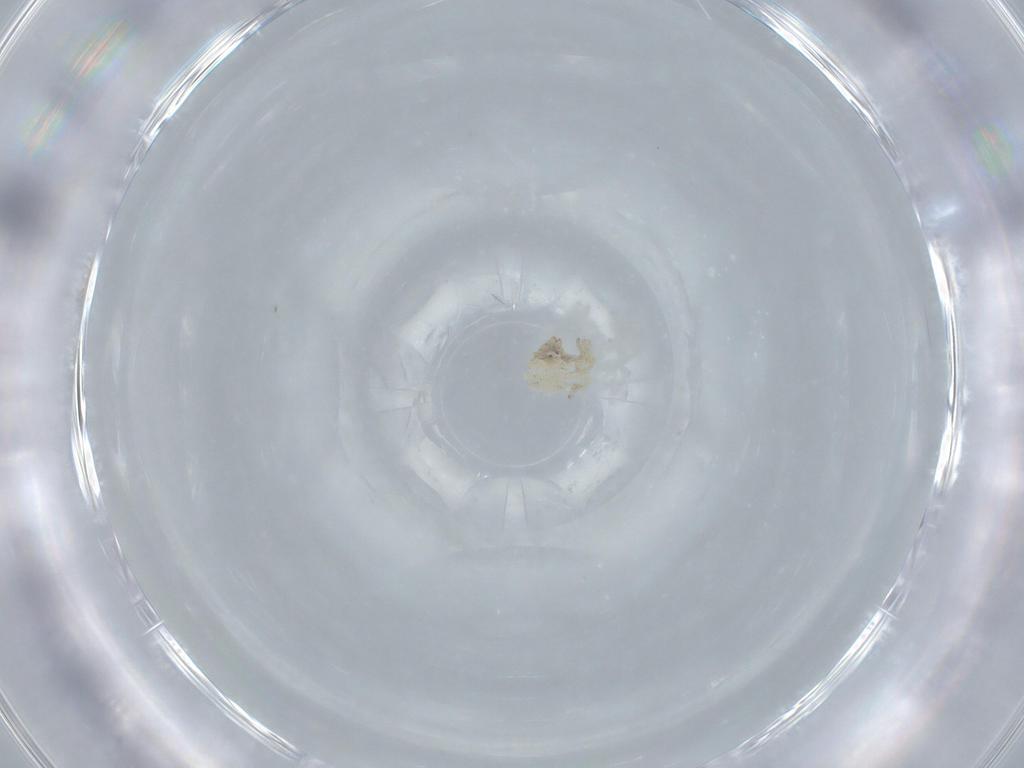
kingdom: Animalia
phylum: Arthropoda
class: Arachnida
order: Araneae
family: Oonopidae
